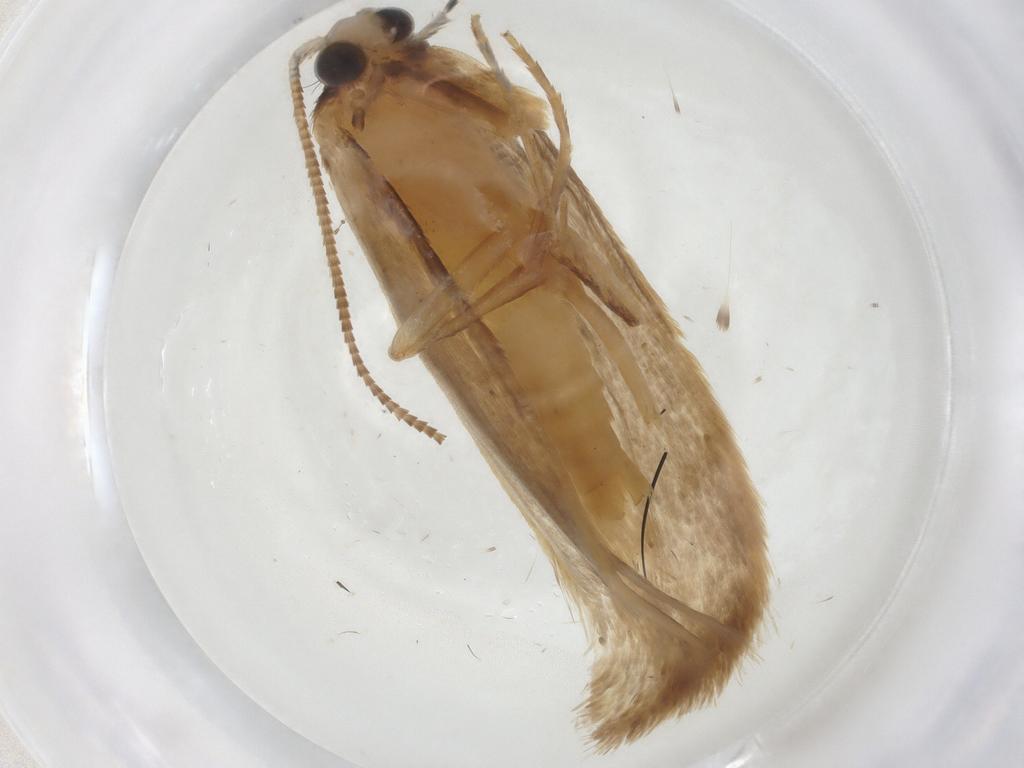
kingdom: Animalia
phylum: Arthropoda
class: Insecta
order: Lepidoptera
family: Tineidae
